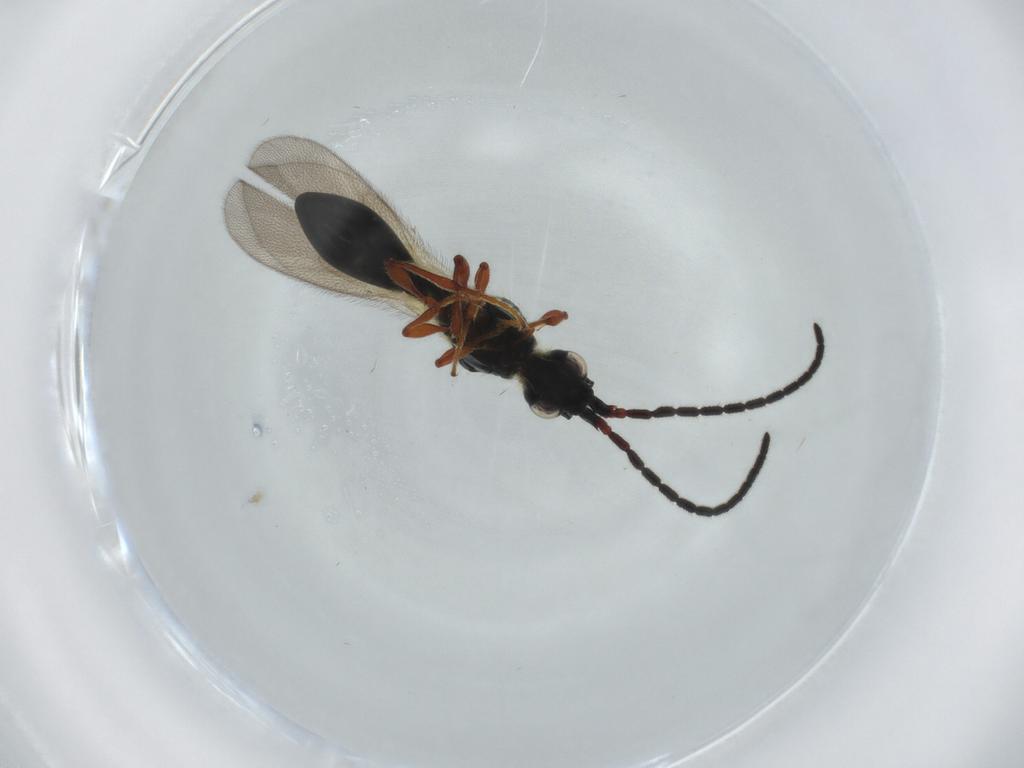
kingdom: Animalia
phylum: Arthropoda
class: Insecta
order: Hymenoptera
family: Diapriidae
